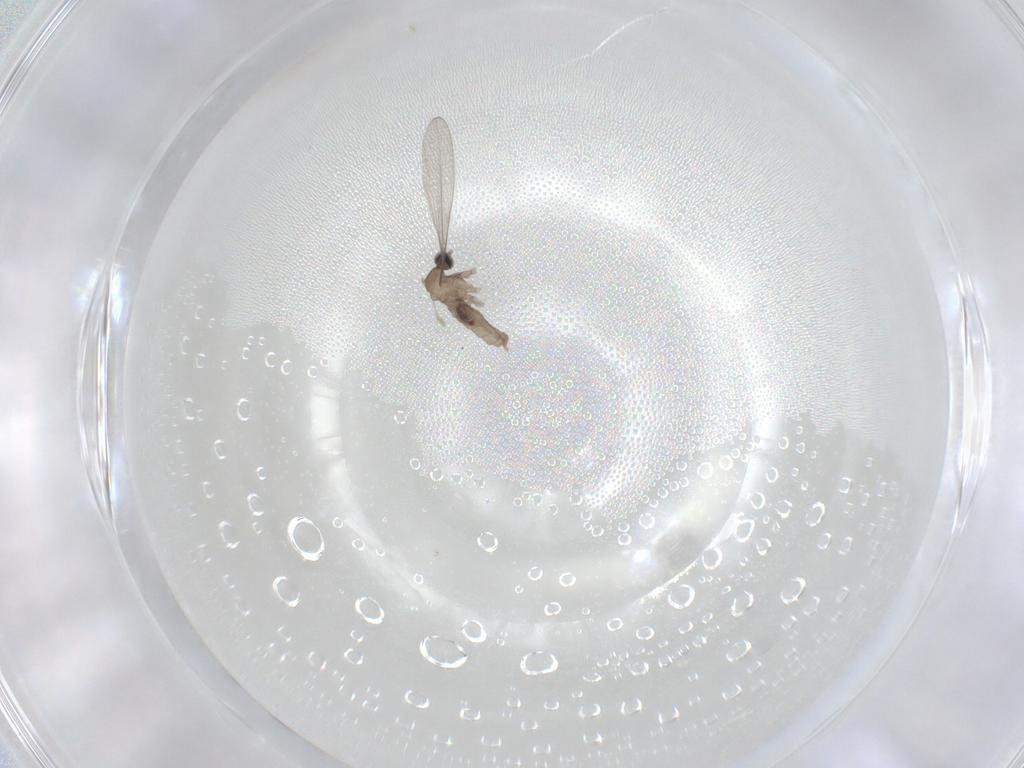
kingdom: Animalia
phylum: Arthropoda
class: Insecta
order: Diptera
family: Cecidomyiidae
